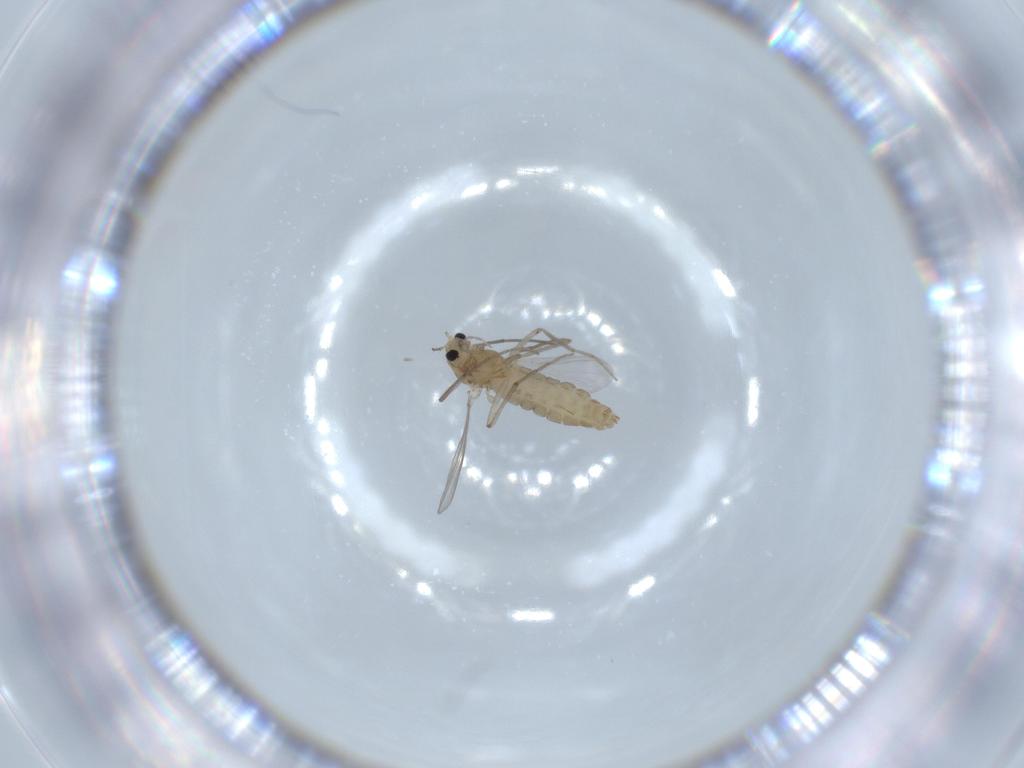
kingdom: Animalia
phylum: Arthropoda
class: Insecta
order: Diptera
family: Chironomidae
